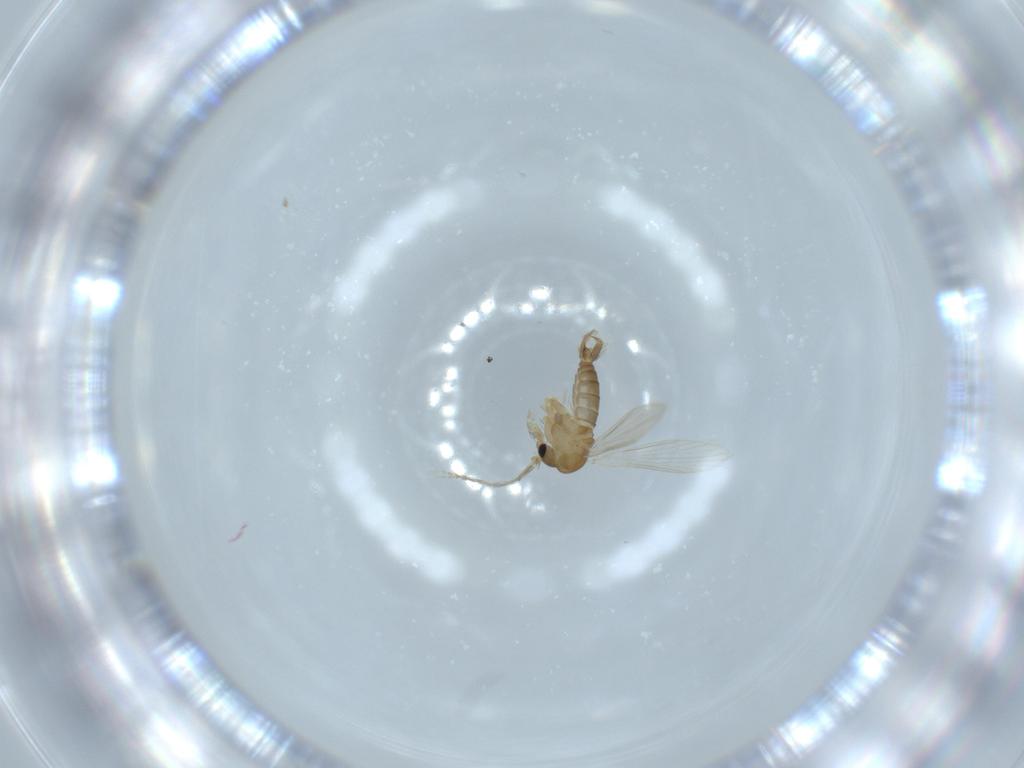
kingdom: Animalia
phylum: Arthropoda
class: Insecta
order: Diptera
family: Psychodidae
